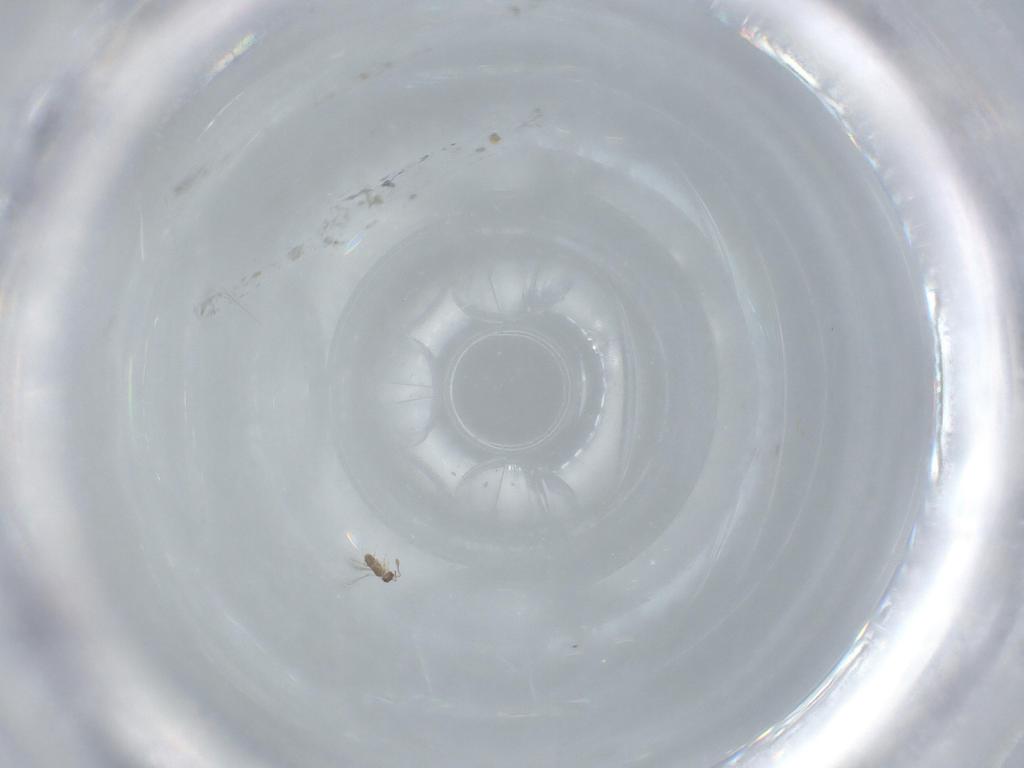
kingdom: Animalia
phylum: Arthropoda
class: Insecta
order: Hymenoptera
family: Mymaridae
